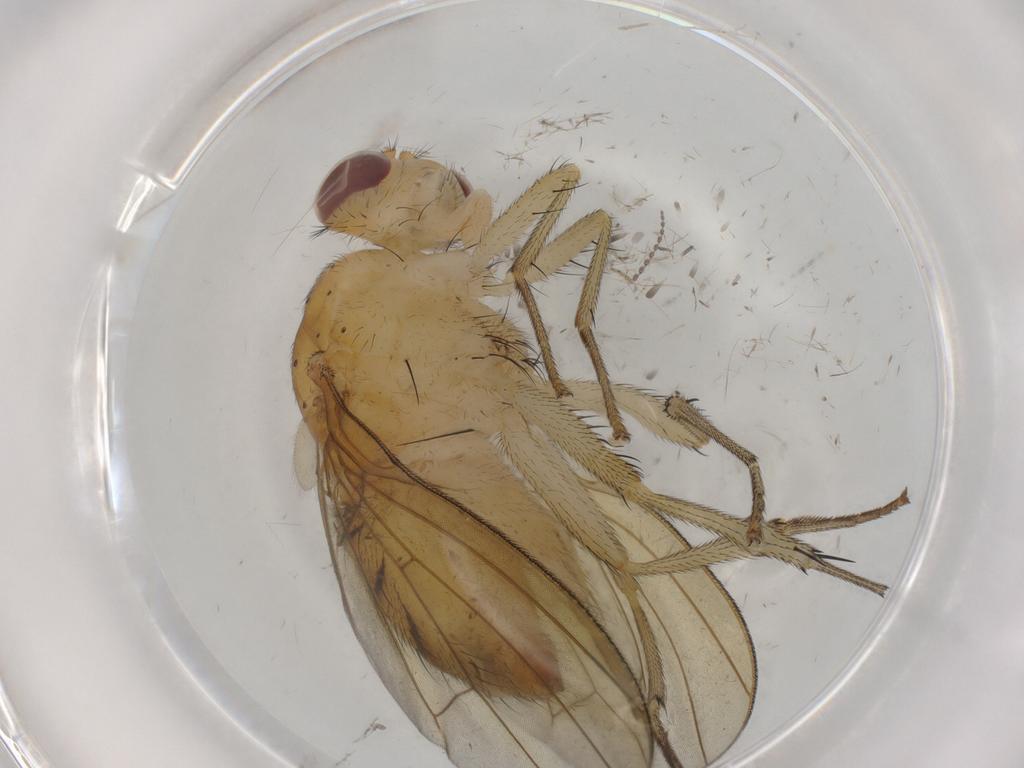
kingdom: Animalia
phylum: Arthropoda
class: Insecta
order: Diptera
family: Cecidomyiidae
